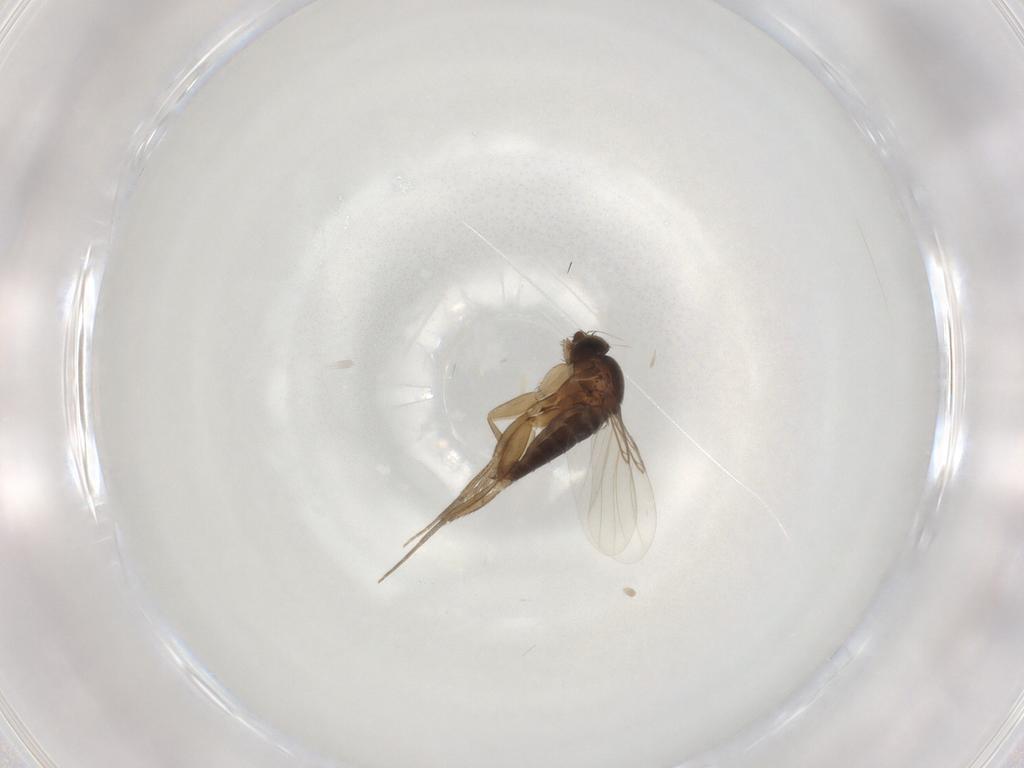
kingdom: Animalia
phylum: Arthropoda
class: Insecta
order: Diptera
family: Phoridae
